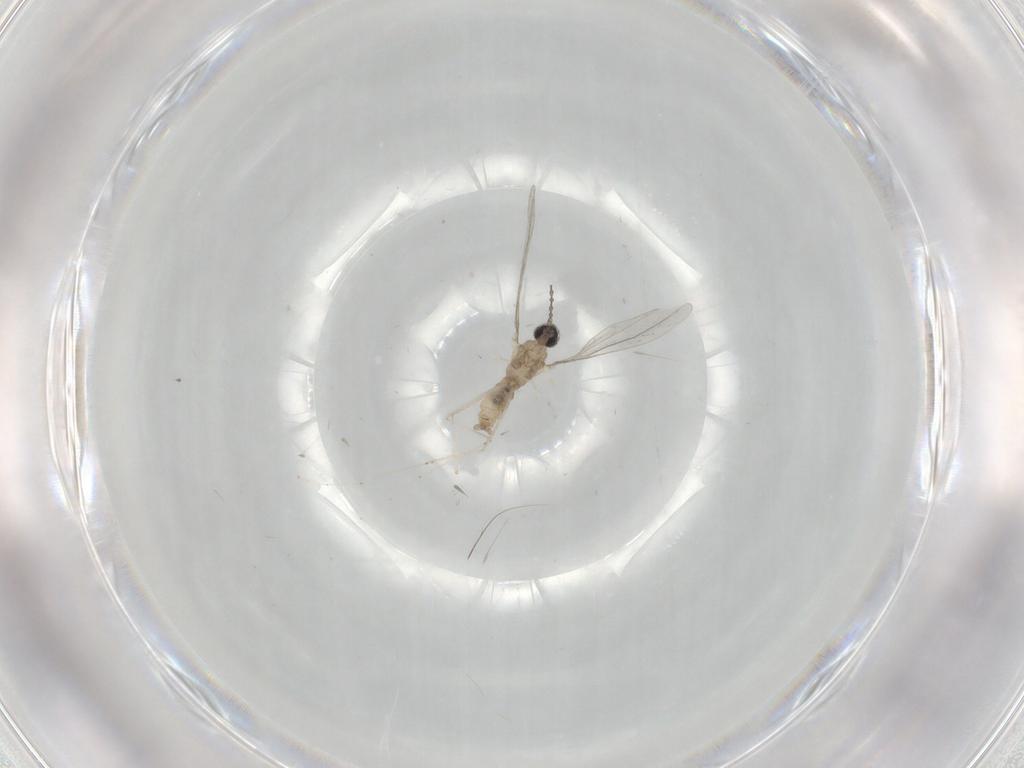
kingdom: Animalia
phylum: Arthropoda
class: Insecta
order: Diptera
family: Cecidomyiidae
